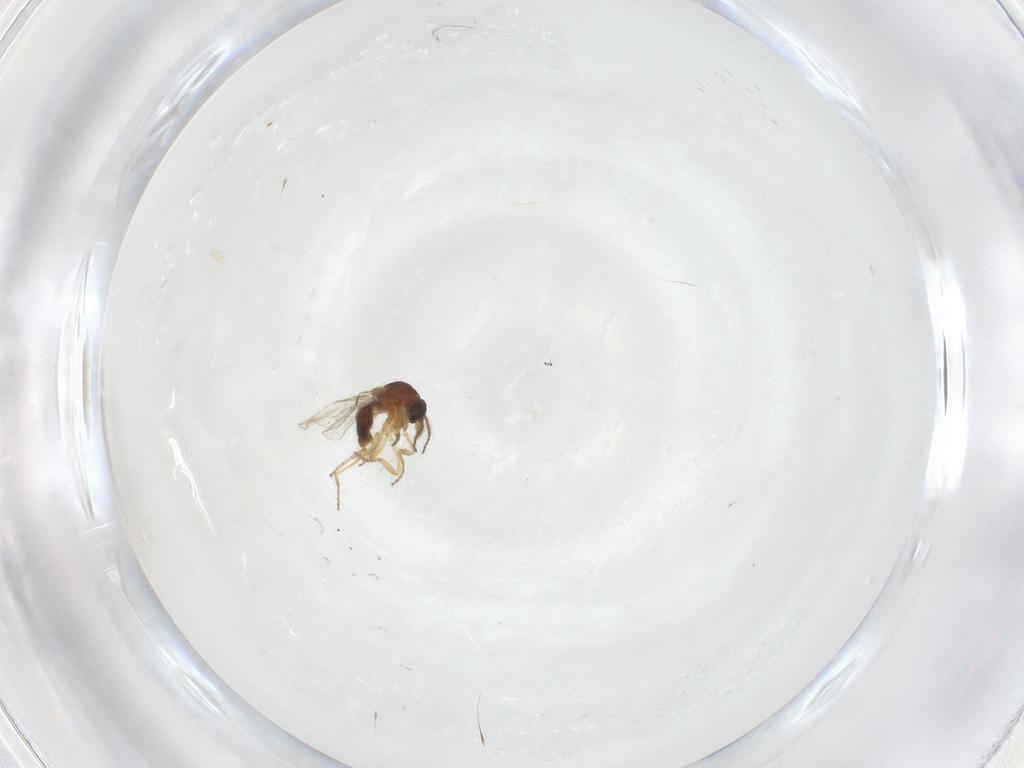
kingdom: Animalia
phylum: Arthropoda
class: Insecta
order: Diptera
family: Ceratopogonidae
